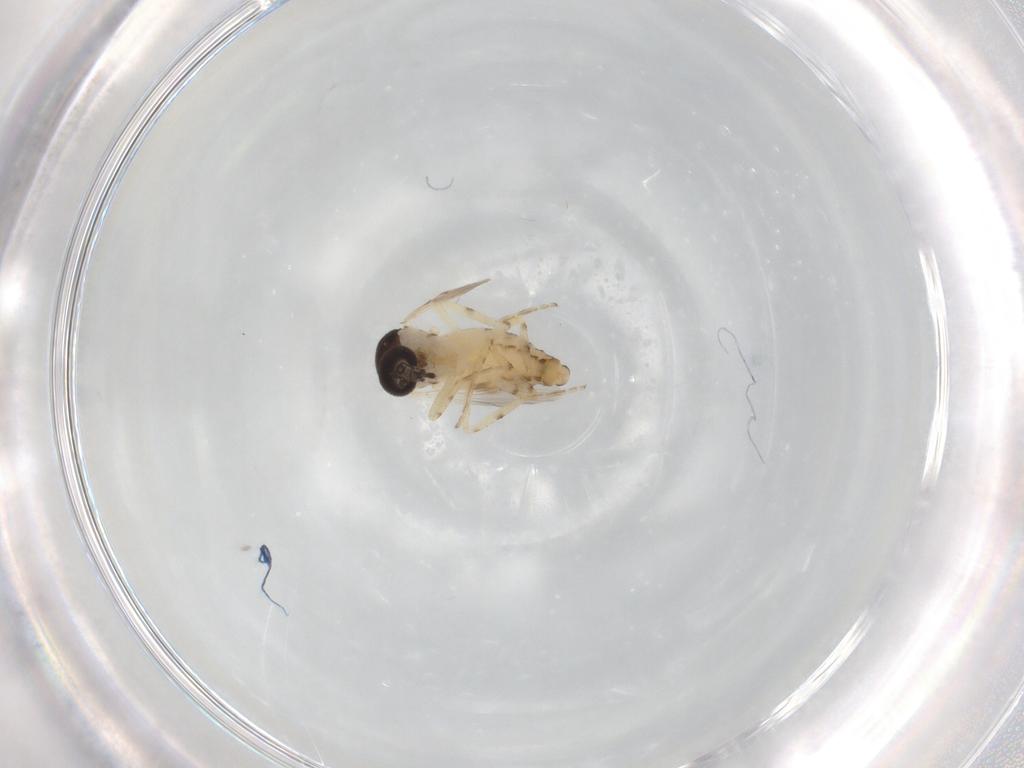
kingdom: Animalia
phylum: Arthropoda
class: Insecta
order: Diptera
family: Ceratopogonidae
